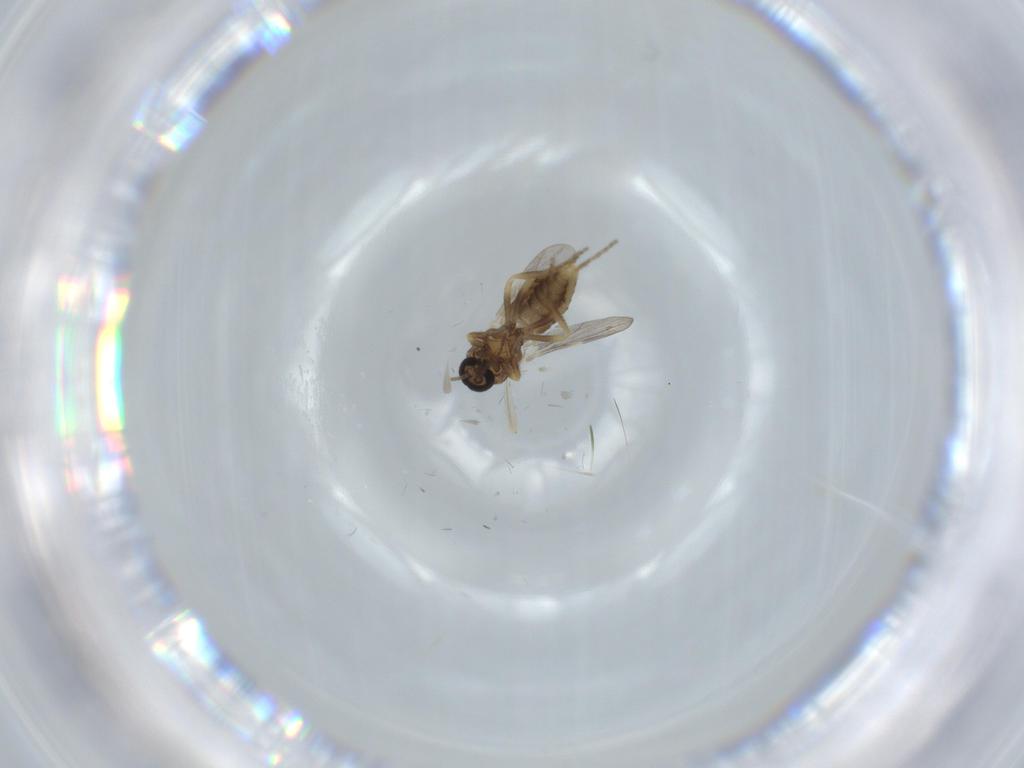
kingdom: Animalia
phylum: Arthropoda
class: Insecta
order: Diptera
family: Ceratopogonidae
